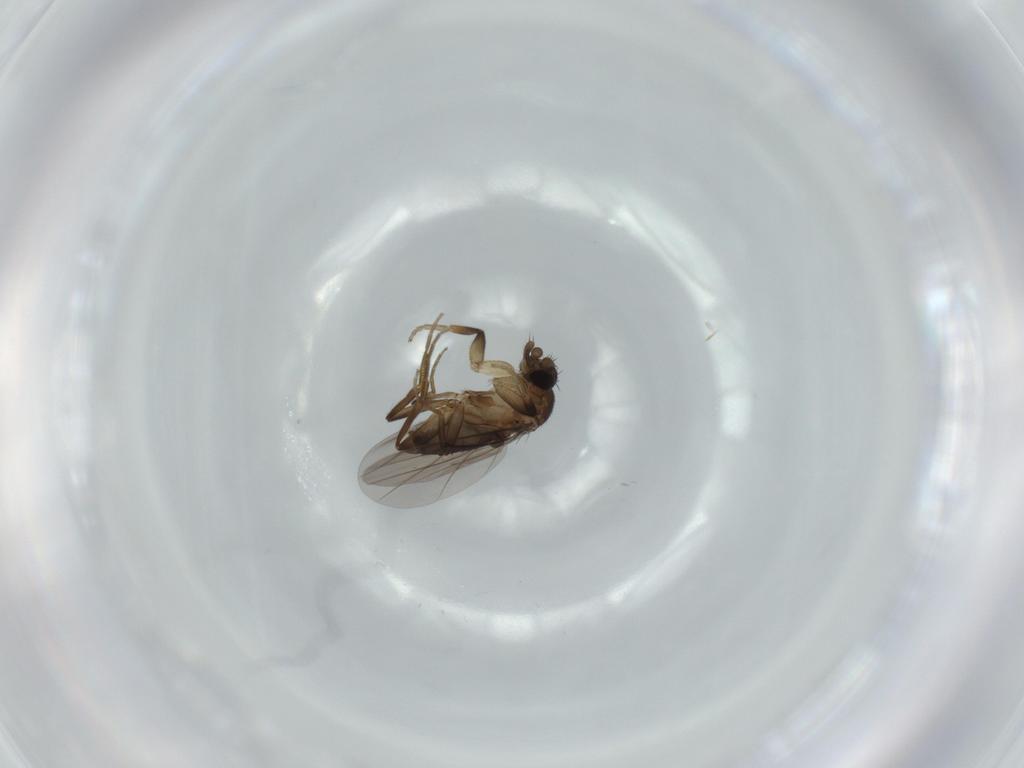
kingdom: Animalia
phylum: Arthropoda
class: Insecta
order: Diptera
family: Phoridae
